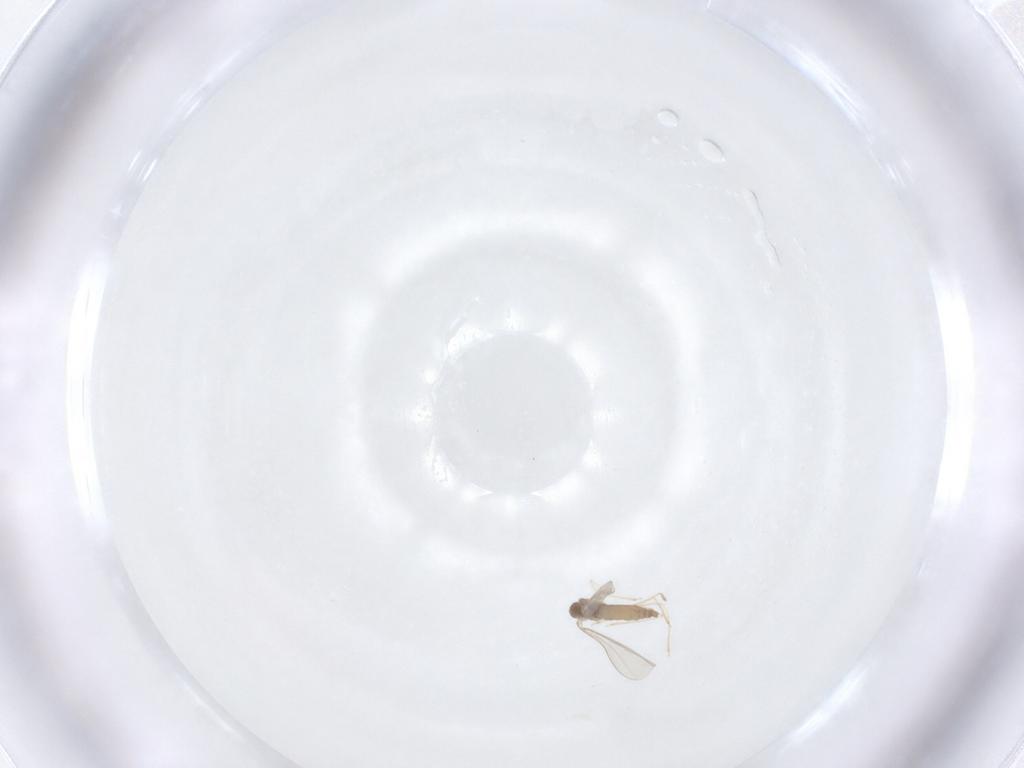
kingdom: Animalia
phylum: Arthropoda
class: Insecta
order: Diptera
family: Cecidomyiidae
